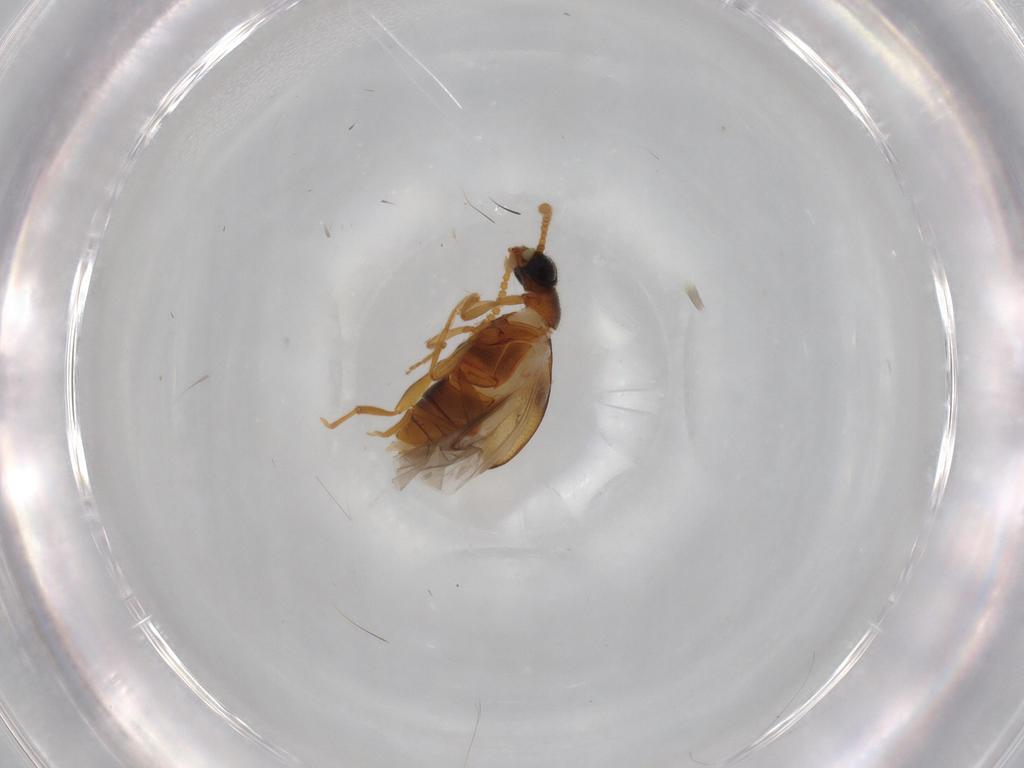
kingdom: Animalia
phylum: Arthropoda
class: Insecta
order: Coleoptera
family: Aderidae
